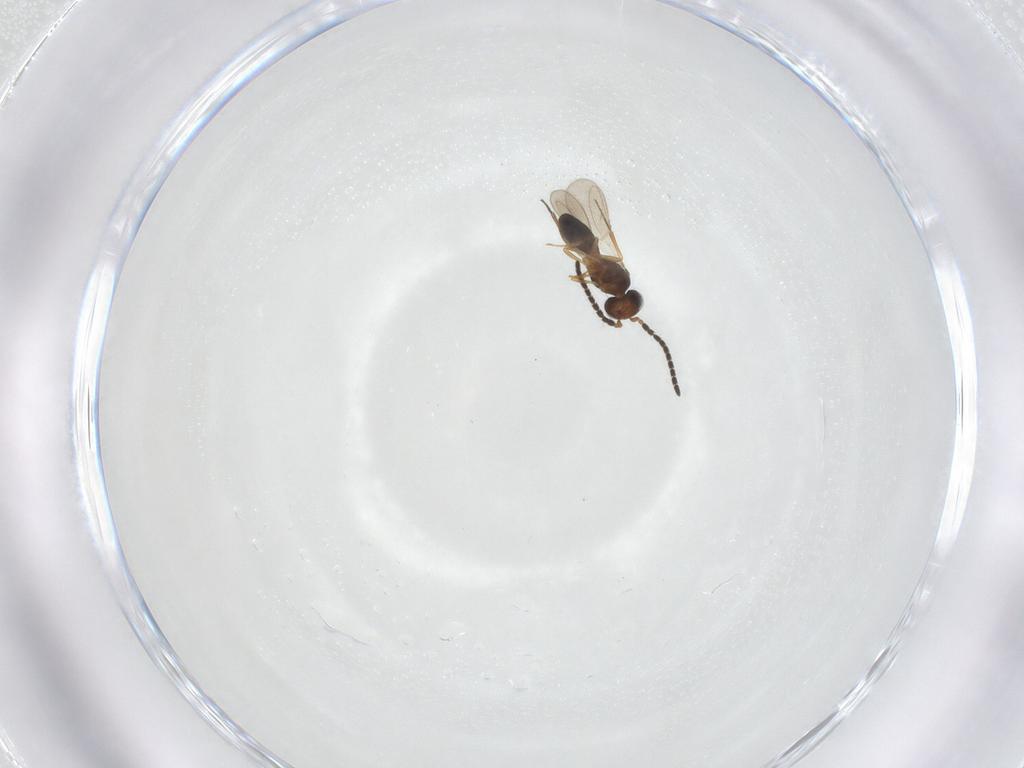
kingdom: Animalia
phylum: Arthropoda
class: Insecta
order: Hymenoptera
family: Scelionidae
